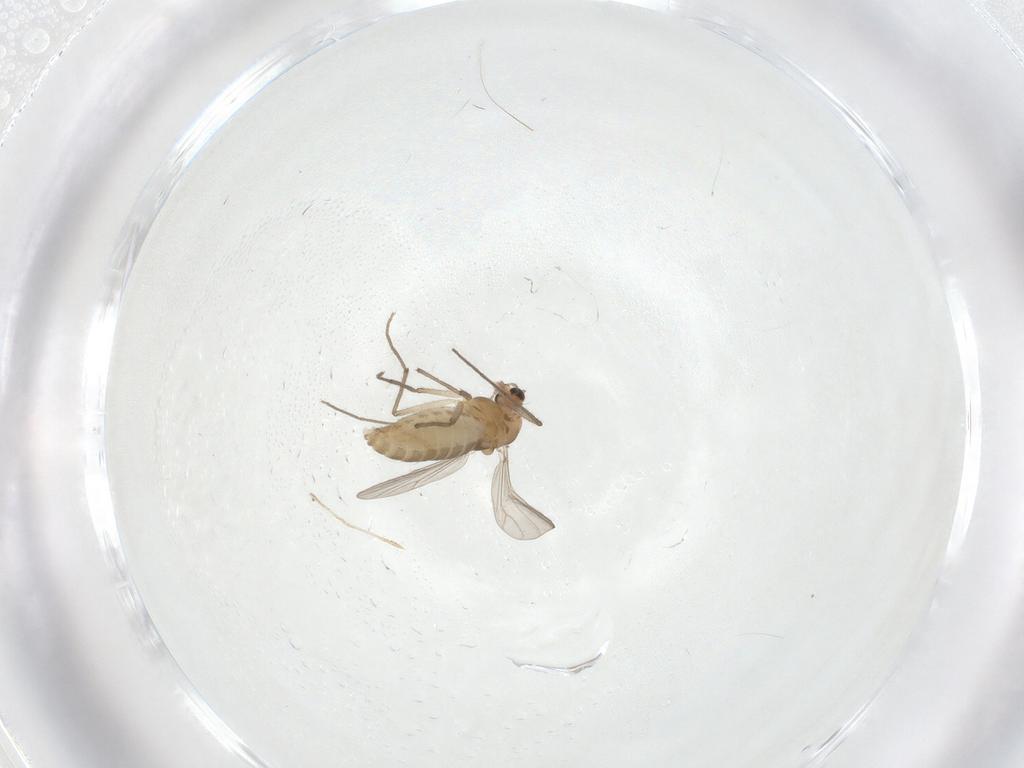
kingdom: Animalia
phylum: Arthropoda
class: Insecta
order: Diptera
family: Chironomidae
